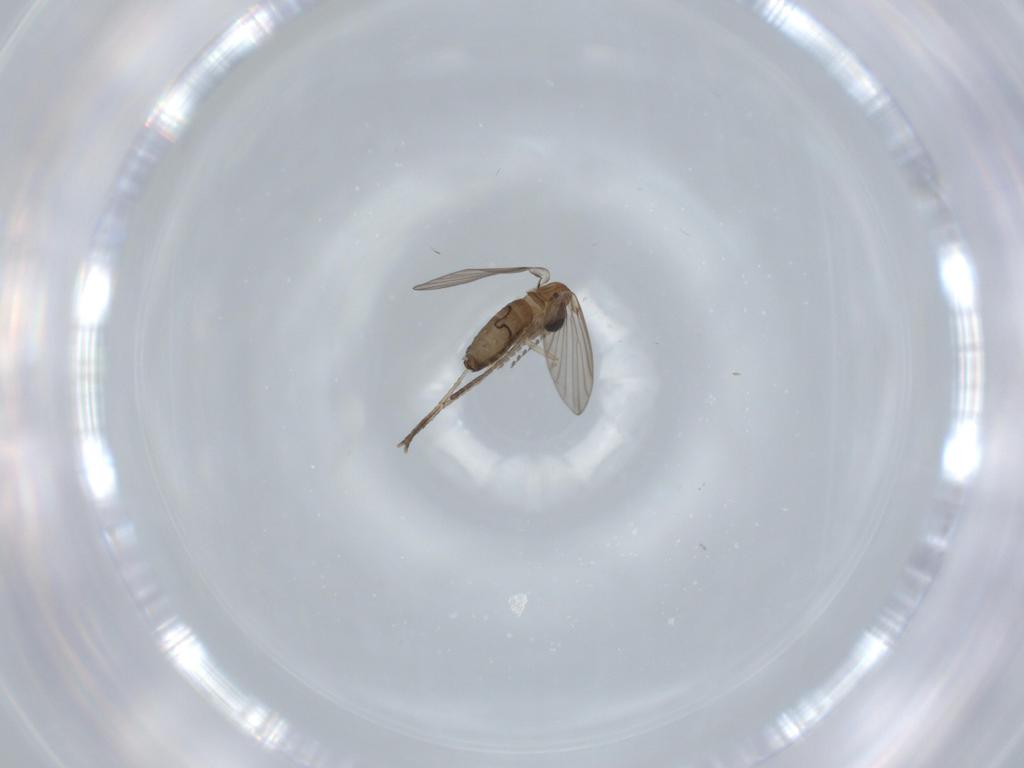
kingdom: Animalia
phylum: Arthropoda
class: Insecta
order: Diptera
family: Psychodidae
